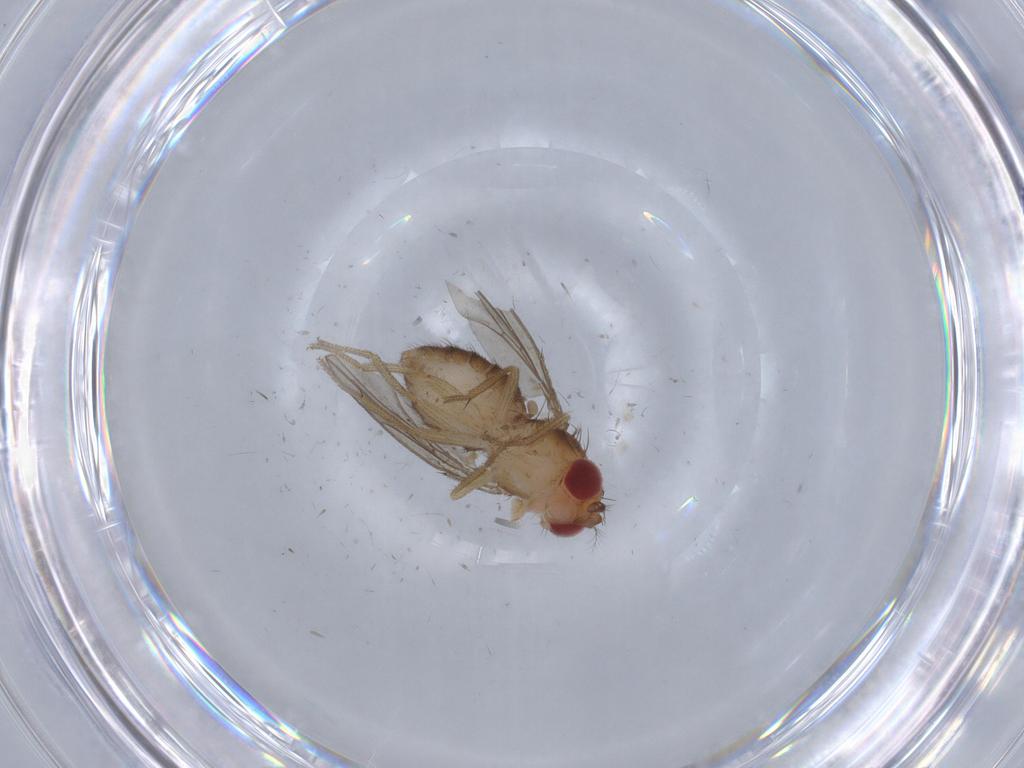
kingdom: Animalia
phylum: Arthropoda
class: Insecta
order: Diptera
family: Drosophilidae
